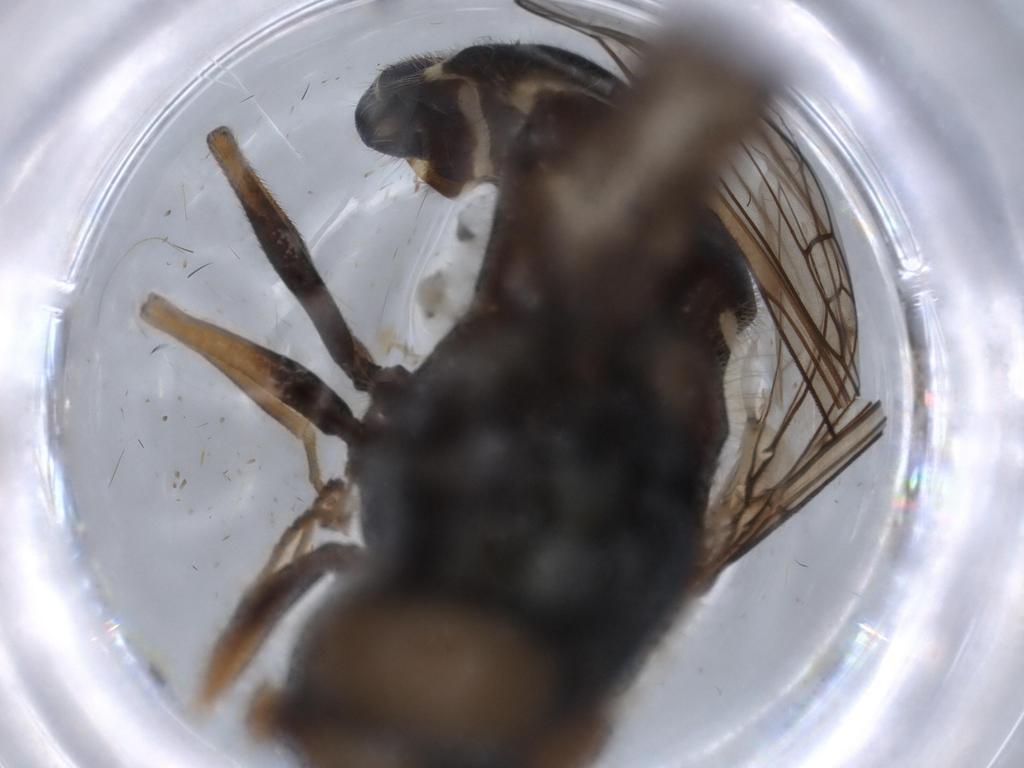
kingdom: Animalia
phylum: Arthropoda
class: Insecta
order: Diptera
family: Syrphidae
